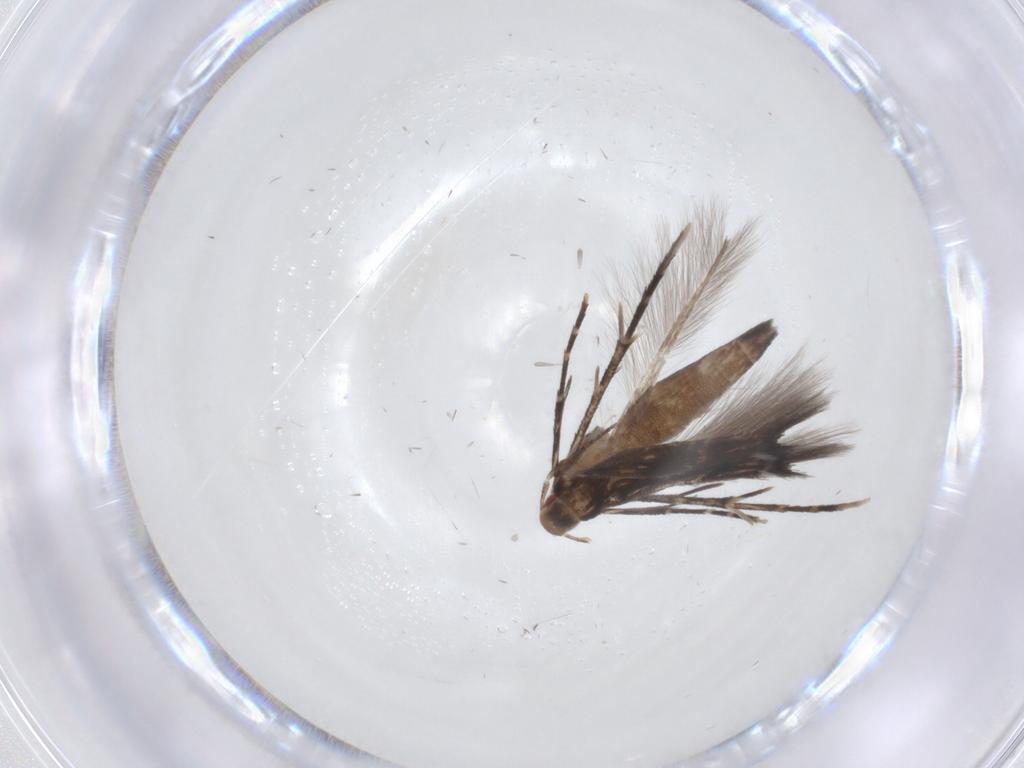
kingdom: Animalia
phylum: Arthropoda
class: Insecta
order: Lepidoptera
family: Cosmopterigidae
